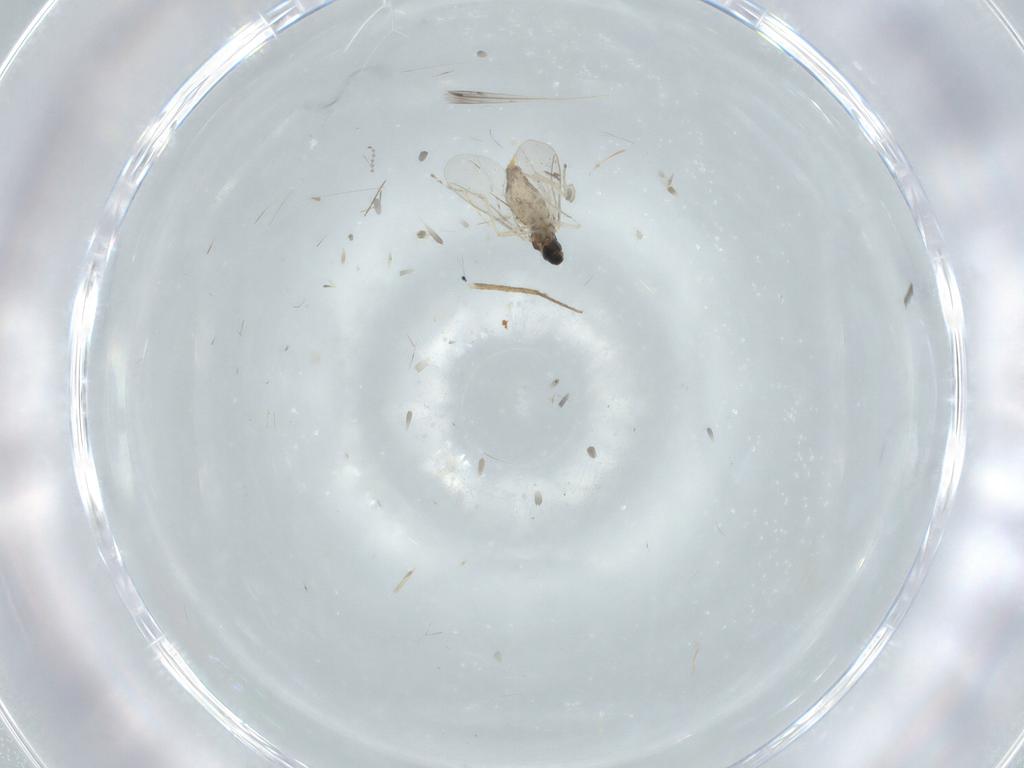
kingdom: Animalia
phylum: Arthropoda
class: Insecta
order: Diptera
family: Cecidomyiidae
